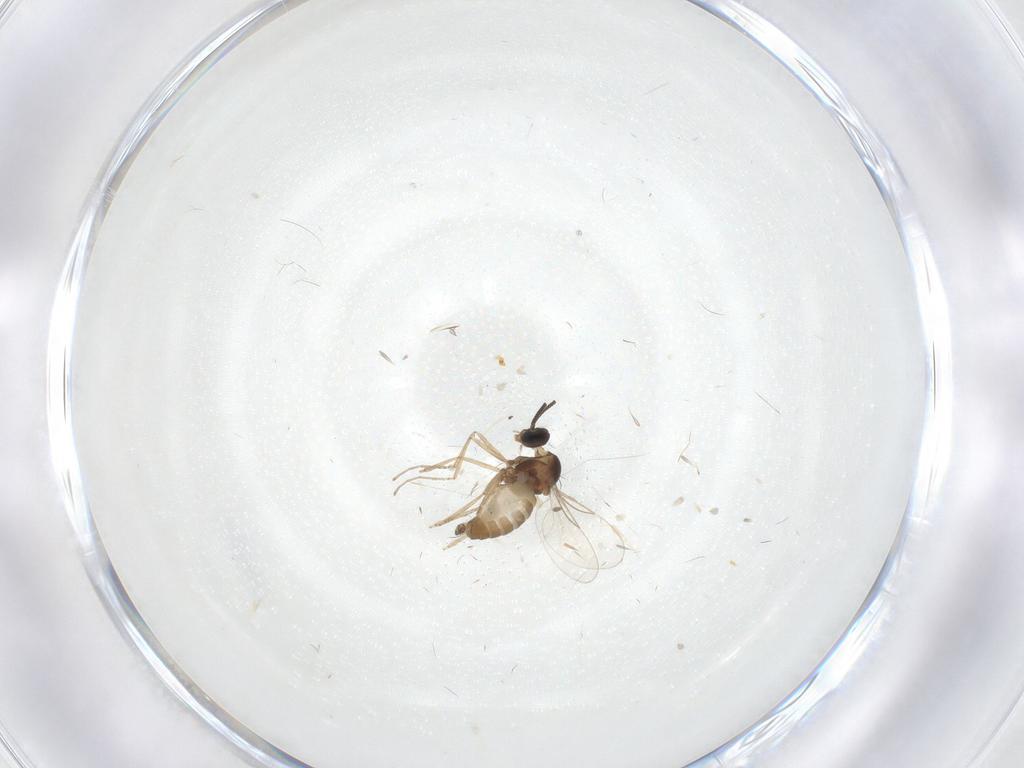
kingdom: Animalia
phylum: Arthropoda
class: Insecta
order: Diptera
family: Cecidomyiidae
